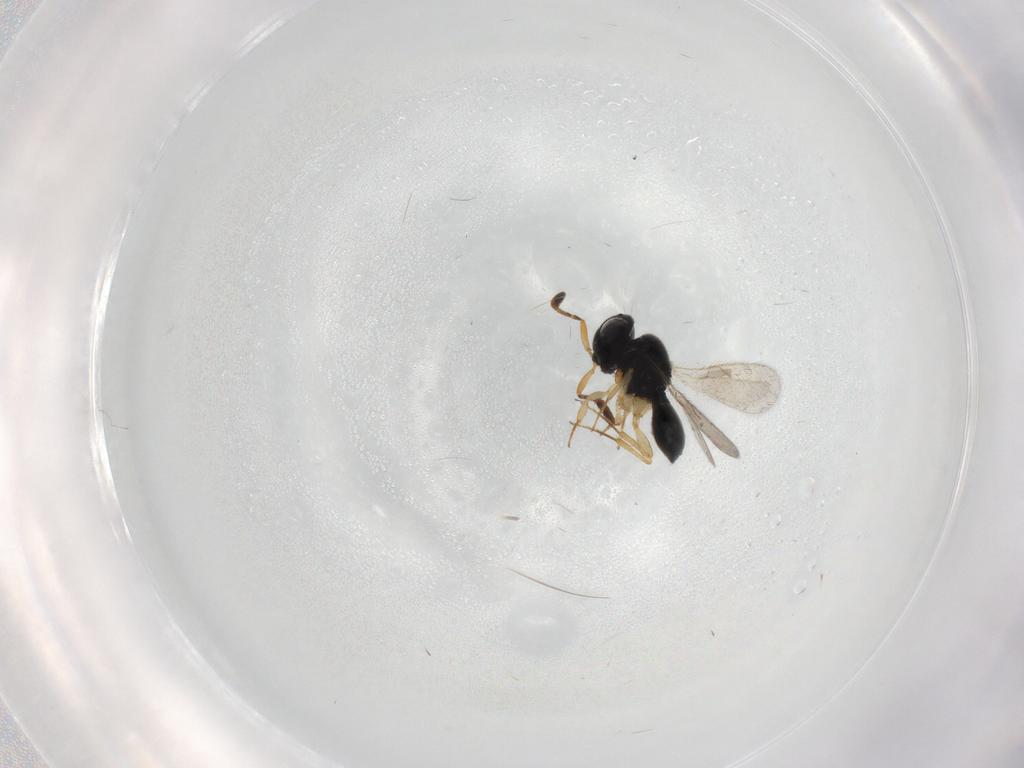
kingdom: Animalia
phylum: Arthropoda
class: Insecta
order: Hymenoptera
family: Scelionidae
